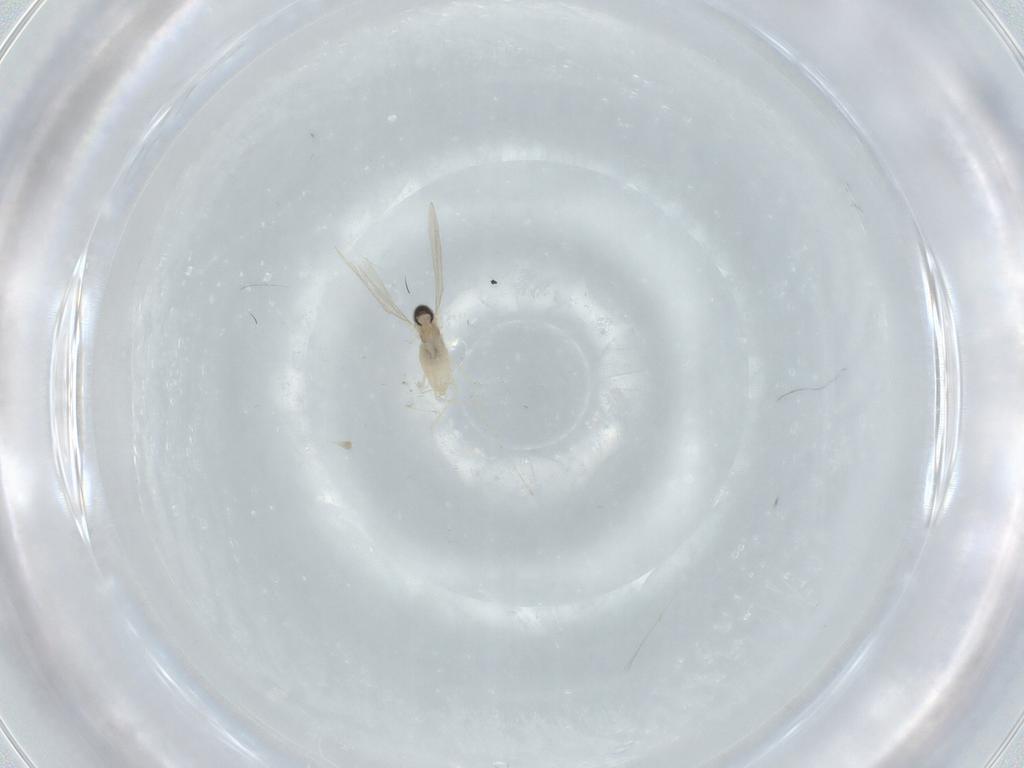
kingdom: Animalia
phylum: Arthropoda
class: Insecta
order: Diptera
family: Cecidomyiidae
